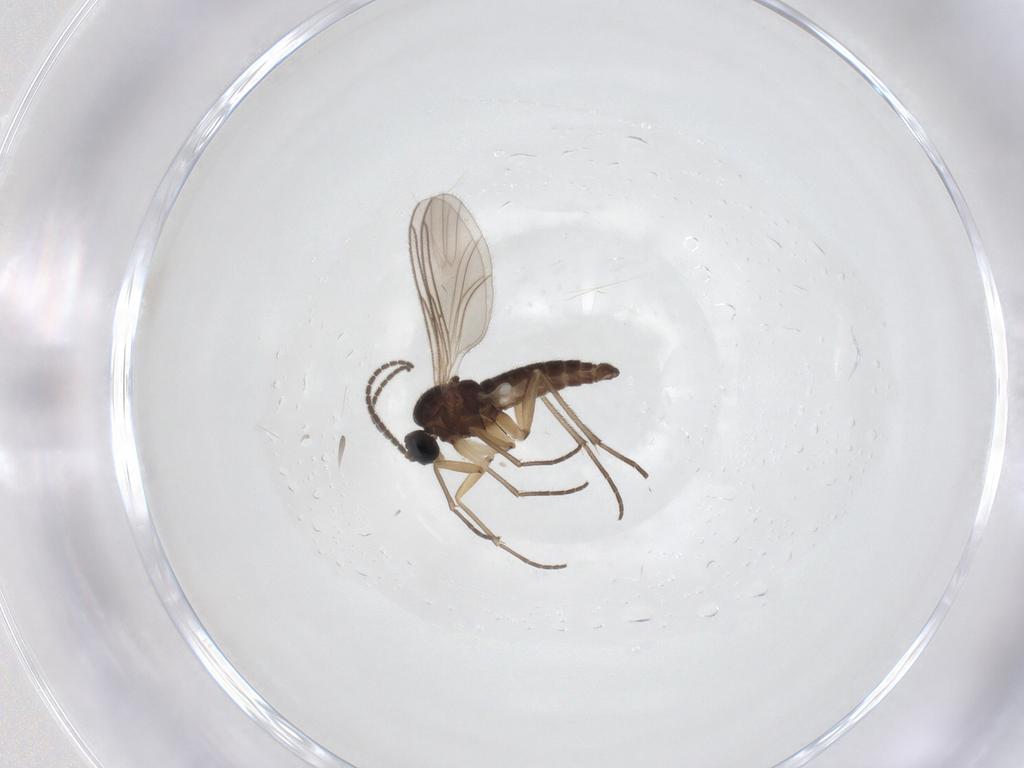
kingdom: Animalia
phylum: Arthropoda
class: Insecta
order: Diptera
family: Sciaridae
